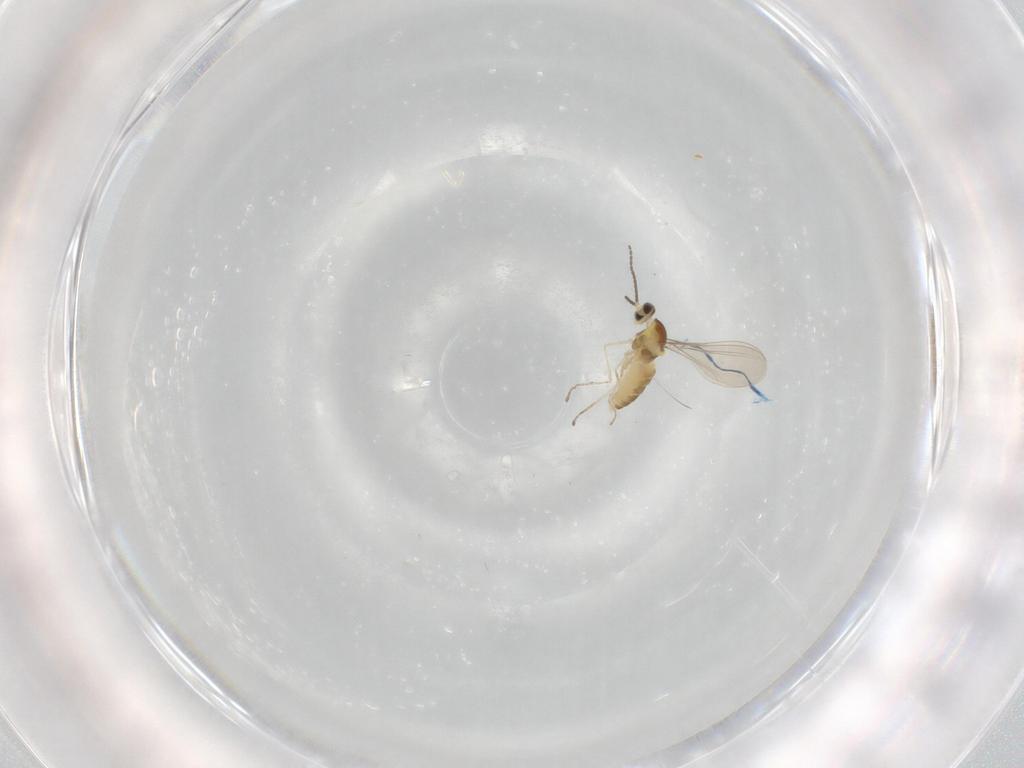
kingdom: Animalia
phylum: Arthropoda
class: Insecta
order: Diptera
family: Cecidomyiidae
